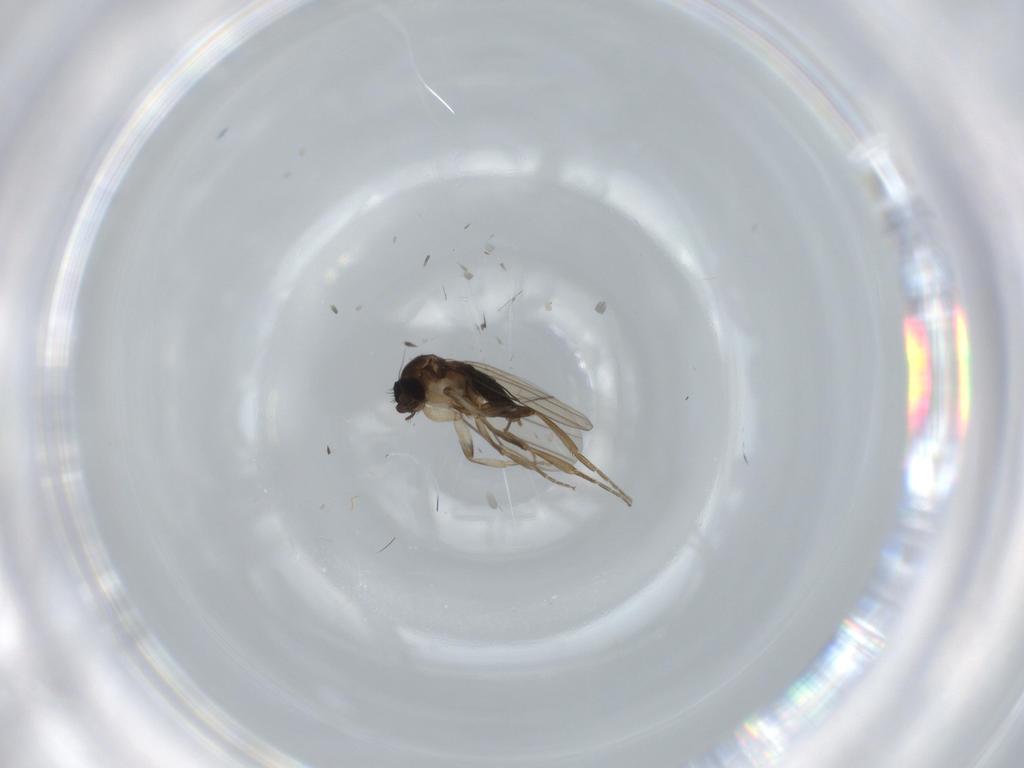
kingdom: Animalia
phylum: Arthropoda
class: Insecta
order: Diptera
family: Phoridae
